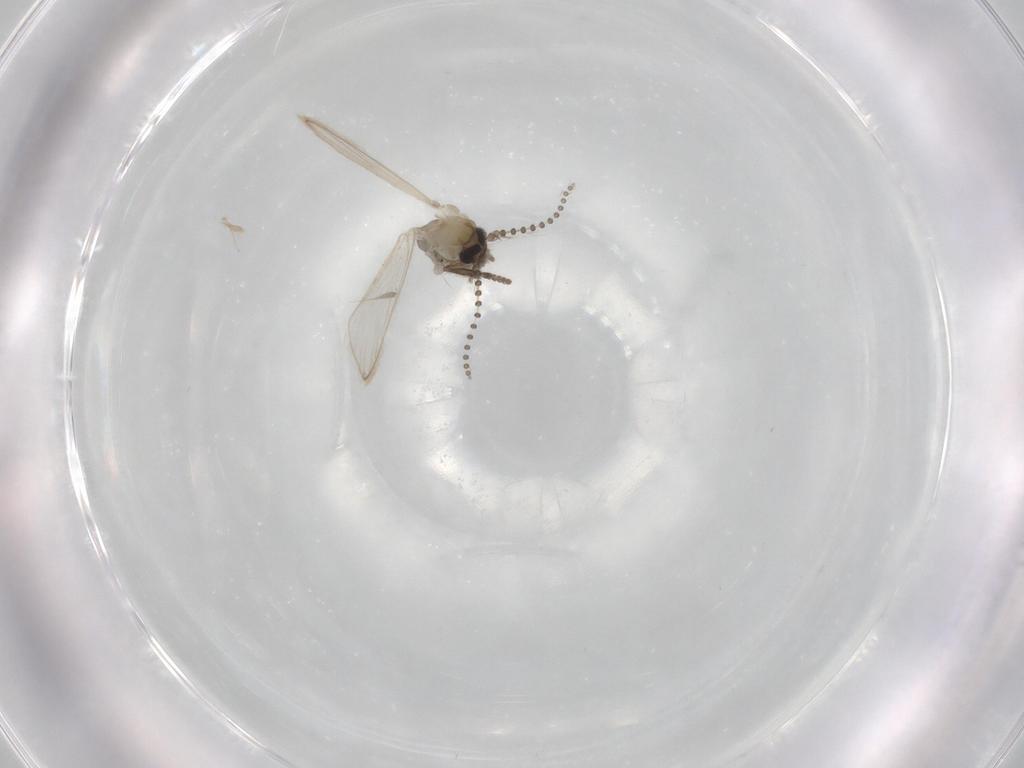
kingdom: Animalia
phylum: Arthropoda
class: Insecta
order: Diptera
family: Psychodidae
